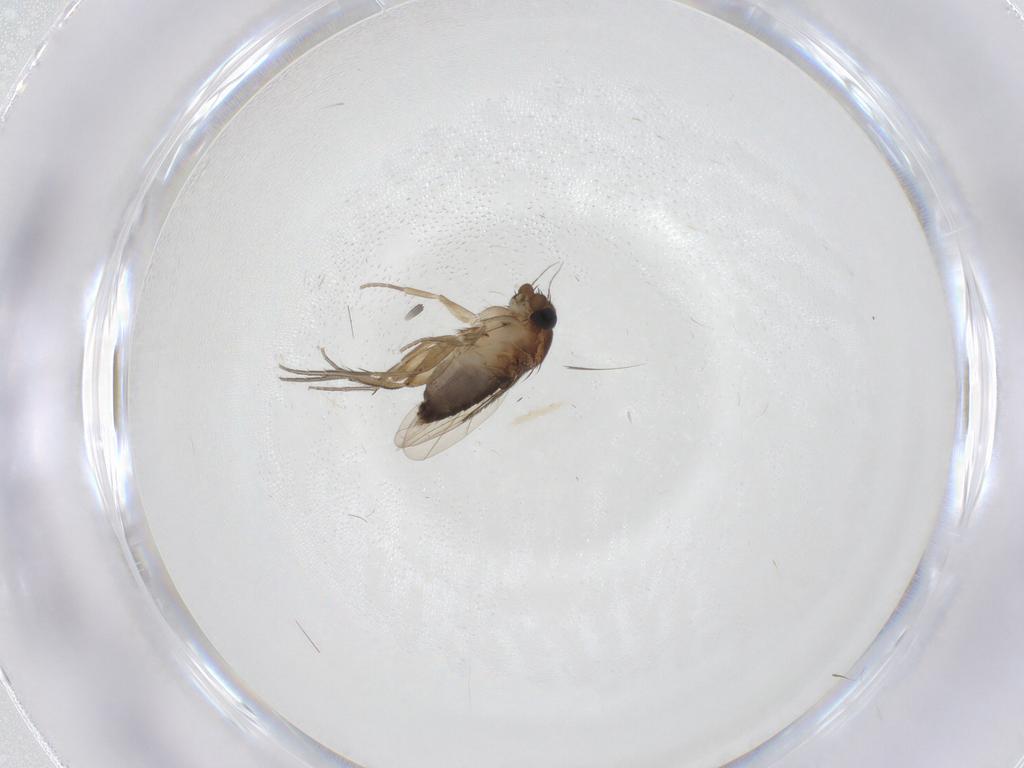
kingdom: Animalia
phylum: Arthropoda
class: Insecta
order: Diptera
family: Phoridae
